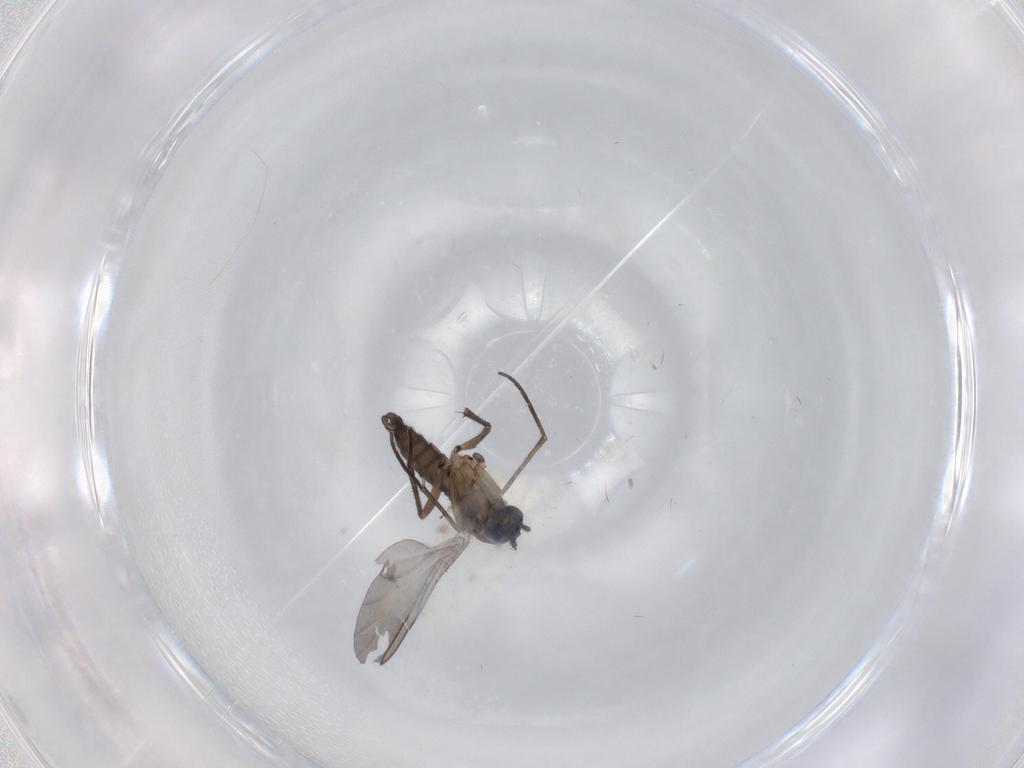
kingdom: Animalia
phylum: Arthropoda
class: Insecta
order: Diptera
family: Sciaridae
